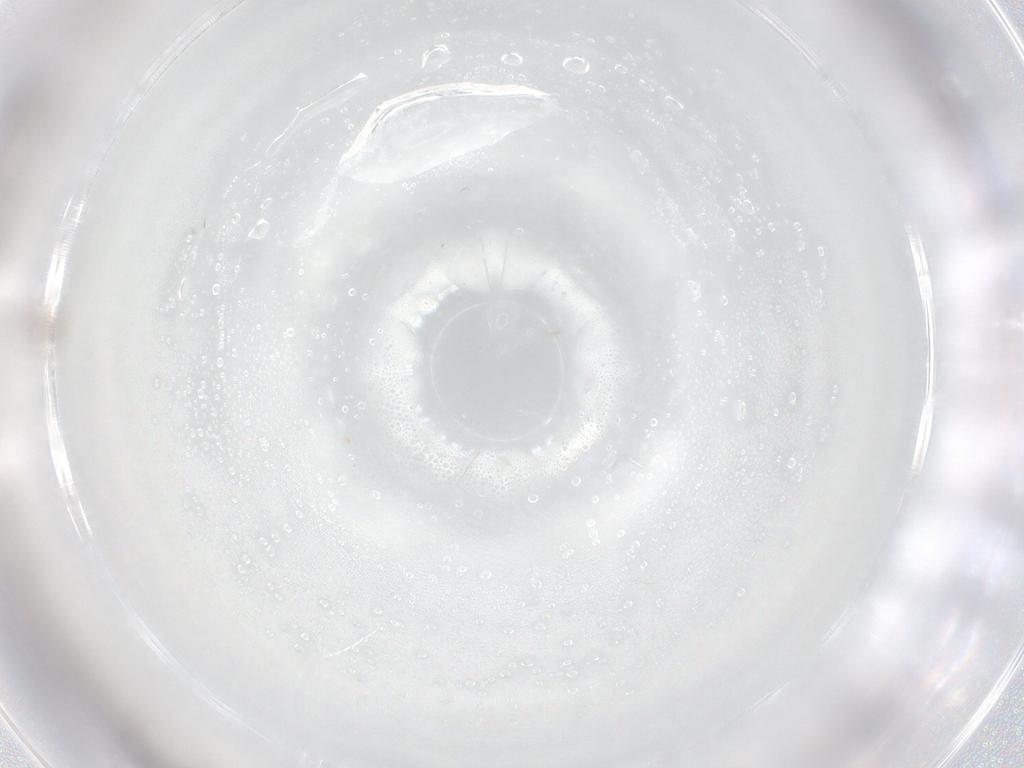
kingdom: Animalia
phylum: Arthropoda
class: Insecta
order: Hymenoptera
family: Trichogrammatidae
